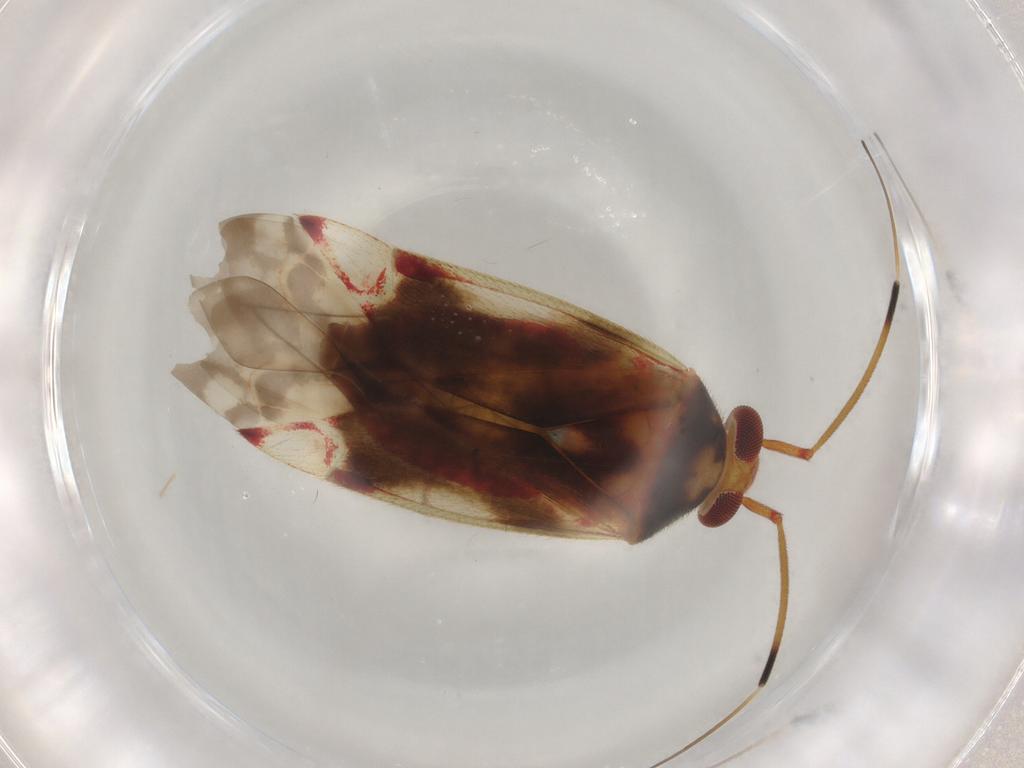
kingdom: Animalia
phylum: Arthropoda
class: Insecta
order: Hemiptera
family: Miridae
